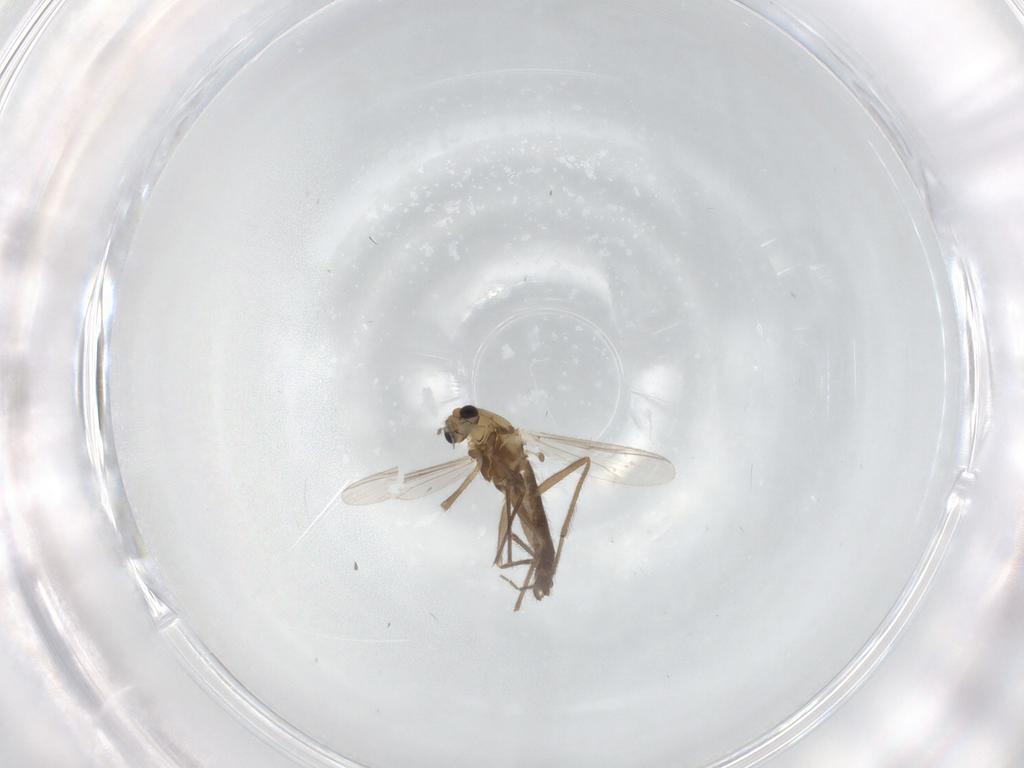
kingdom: Animalia
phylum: Arthropoda
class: Insecta
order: Diptera
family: Chironomidae
